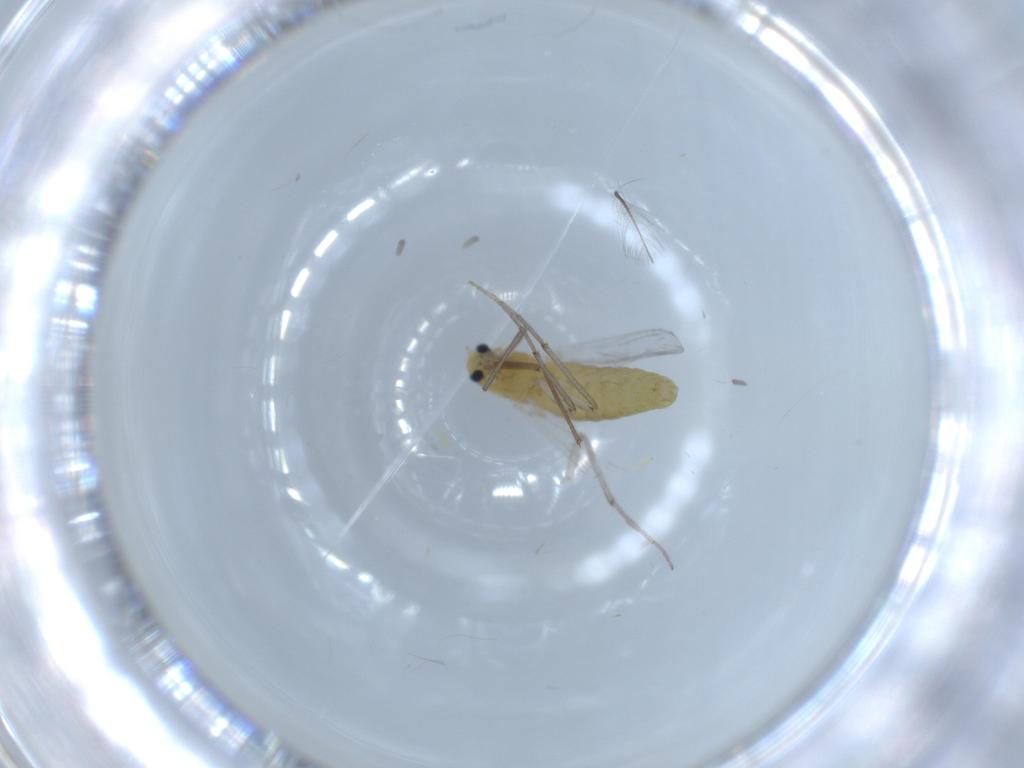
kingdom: Animalia
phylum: Arthropoda
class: Insecta
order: Diptera
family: Chironomidae
